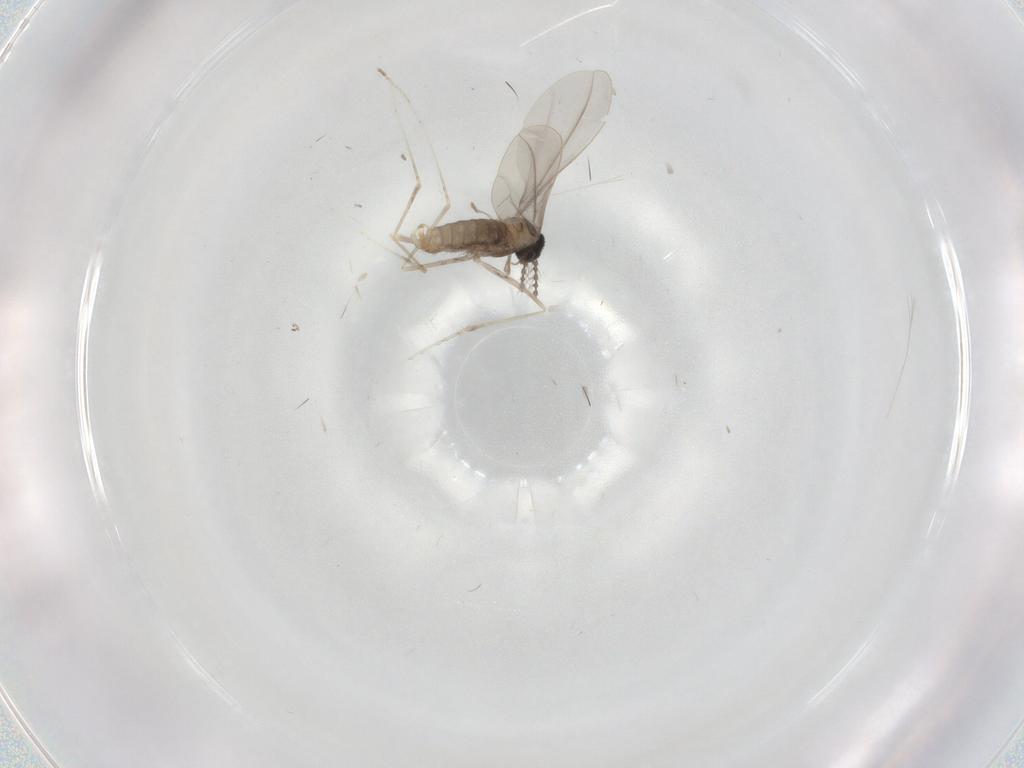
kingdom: Animalia
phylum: Arthropoda
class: Insecta
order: Diptera
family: Cecidomyiidae
